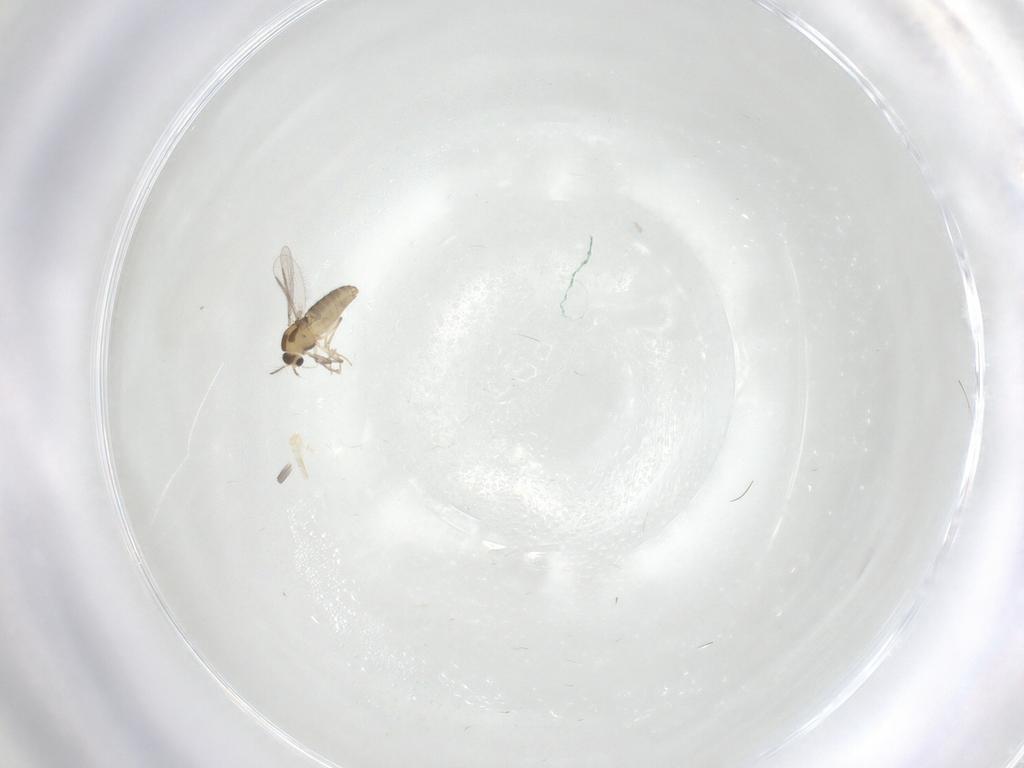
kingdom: Animalia
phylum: Arthropoda
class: Insecta
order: Diptera
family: Chironomidae
